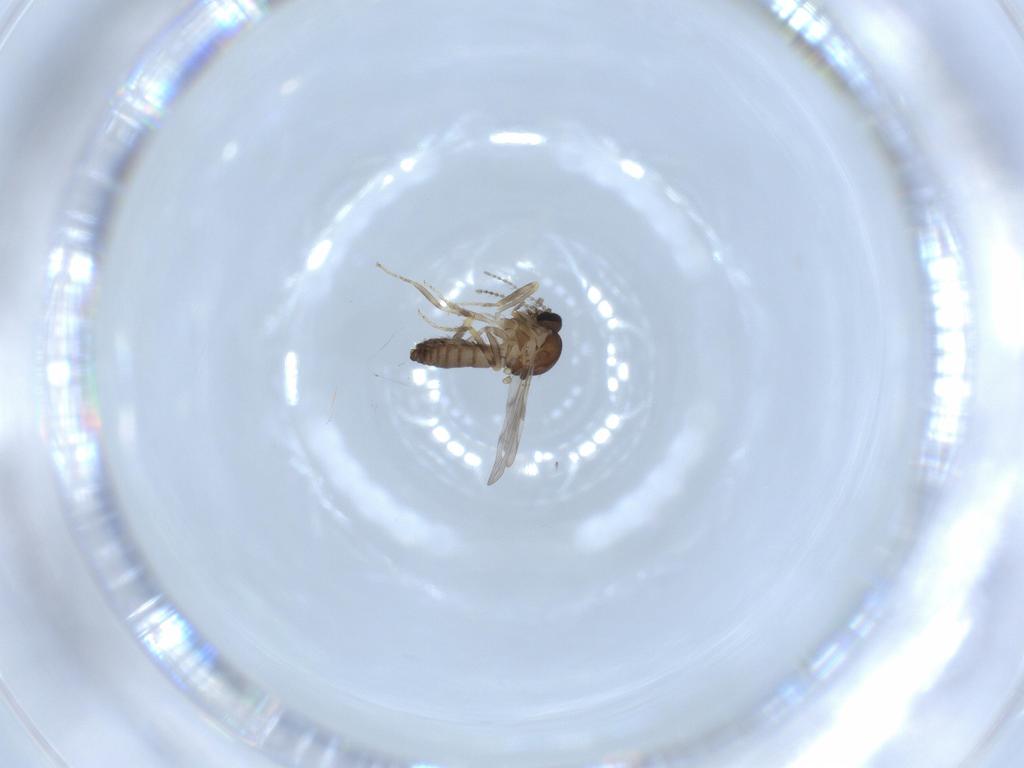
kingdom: Animalia
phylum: Arthropoda
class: Insecta
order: Diptera
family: Ceratopogonidae
